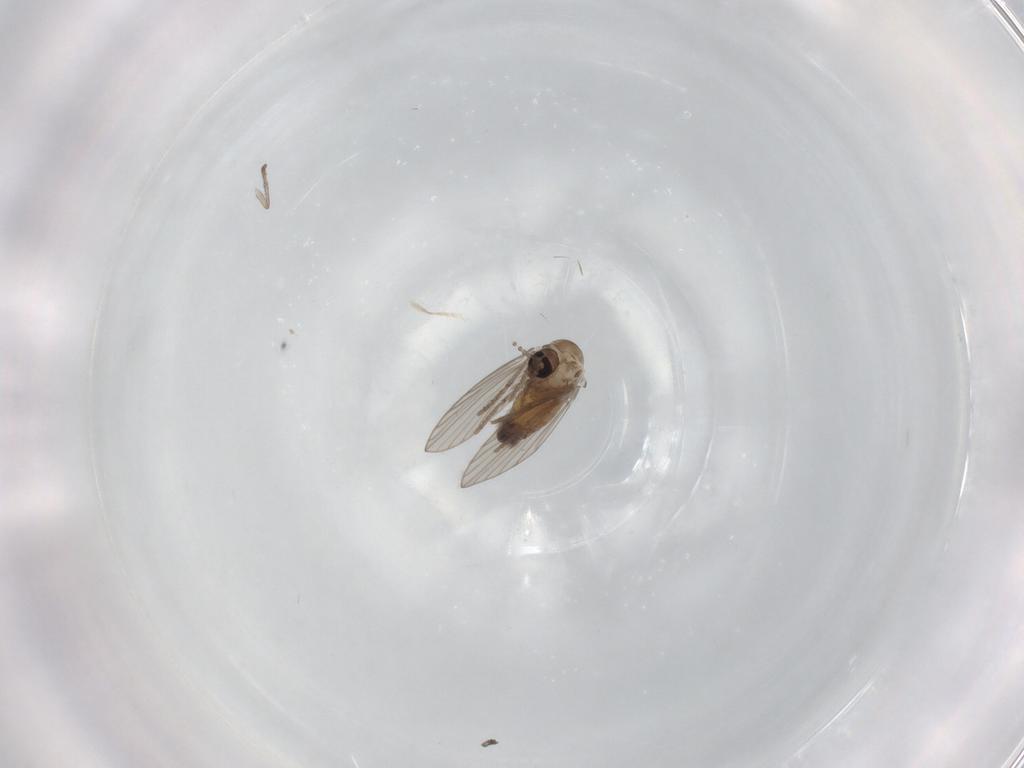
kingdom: Animalia
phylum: Arthropoda
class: Insecta
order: Diptera
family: Psychodidae
